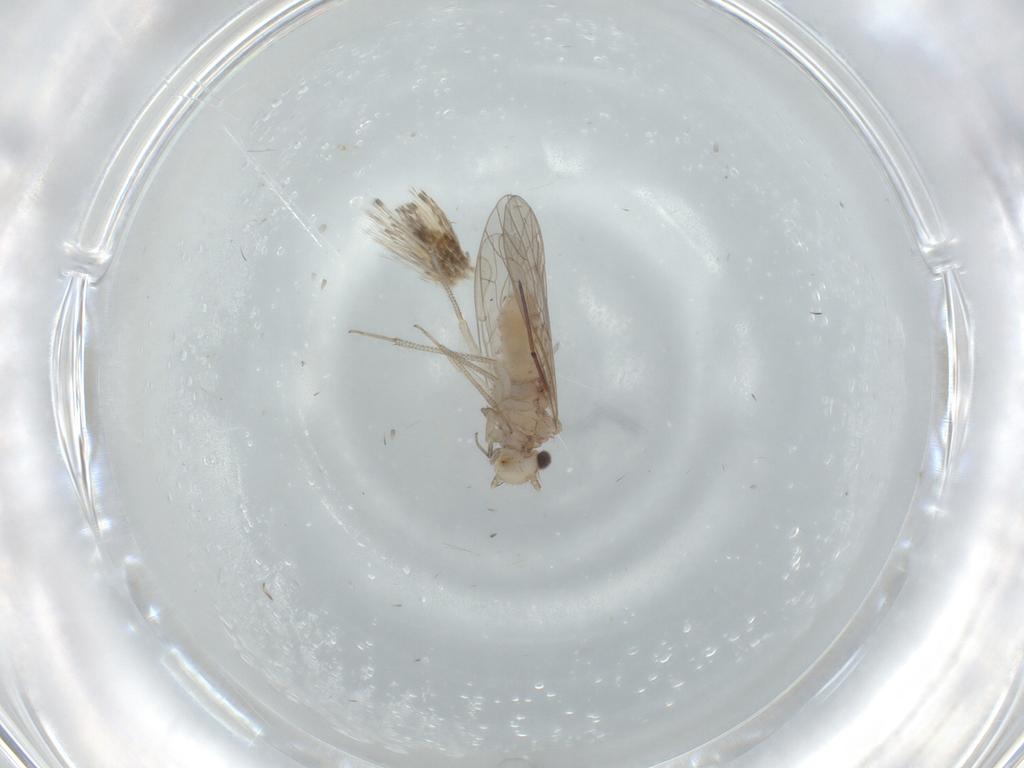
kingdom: Animalia
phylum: Arthropoda
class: Insecta
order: Psocodea
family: Caeciliusidae
